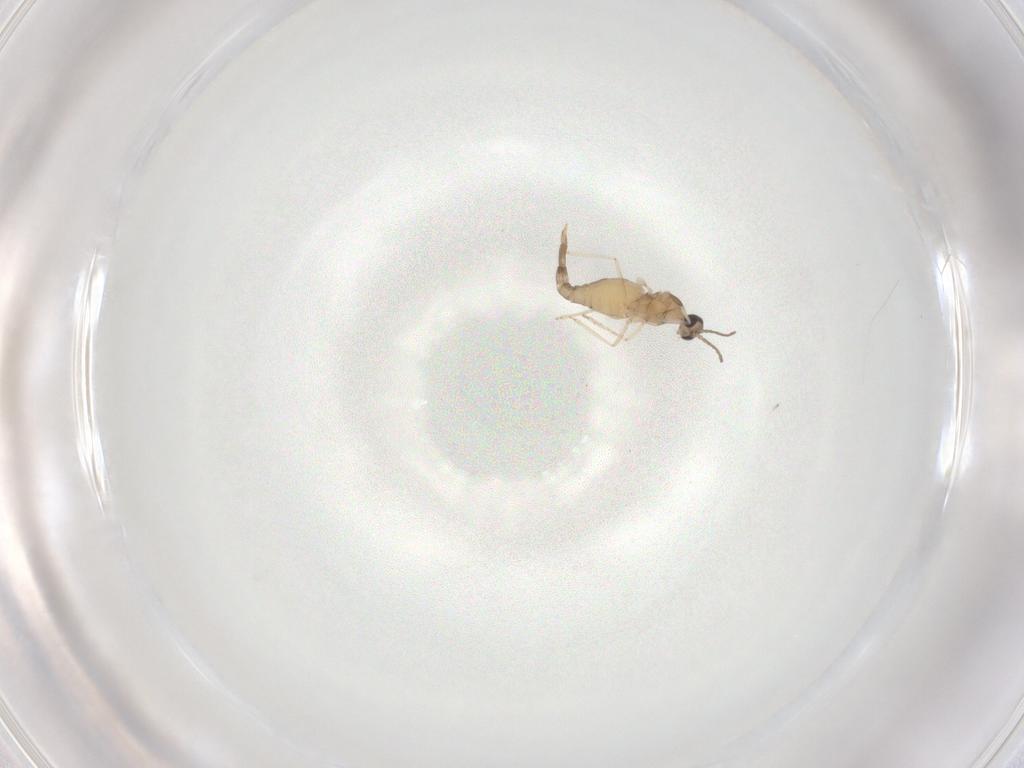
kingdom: Animalia
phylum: Arthropoda
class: Insecta
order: Diptera
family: Cecidomyiidae
